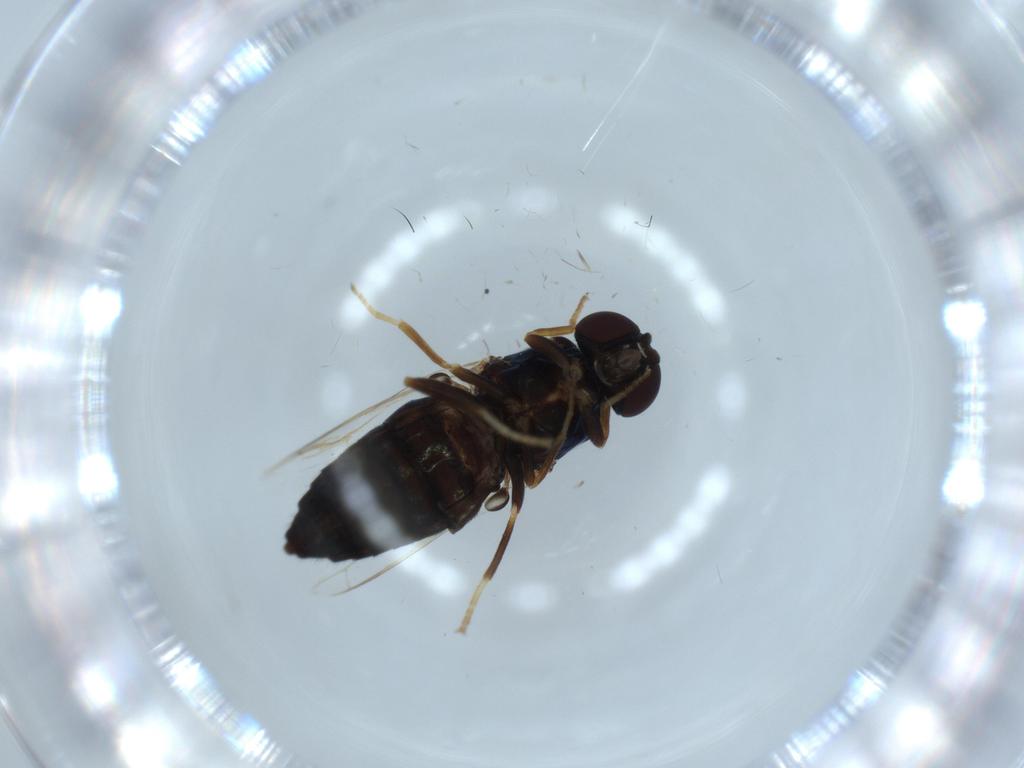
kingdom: Animalia
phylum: Arthropoda
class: Insecta
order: Diptera
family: Scenopinidae
